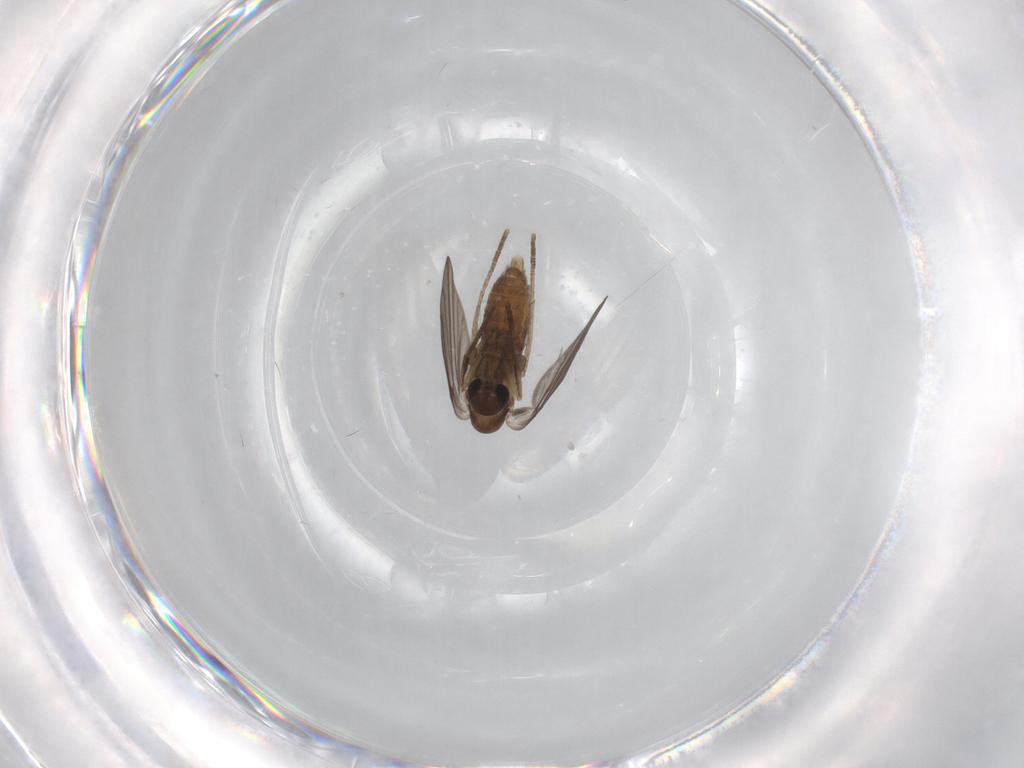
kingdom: Animalia
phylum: Arthropoda
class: Insecta
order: Diptera
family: Psychodidae
